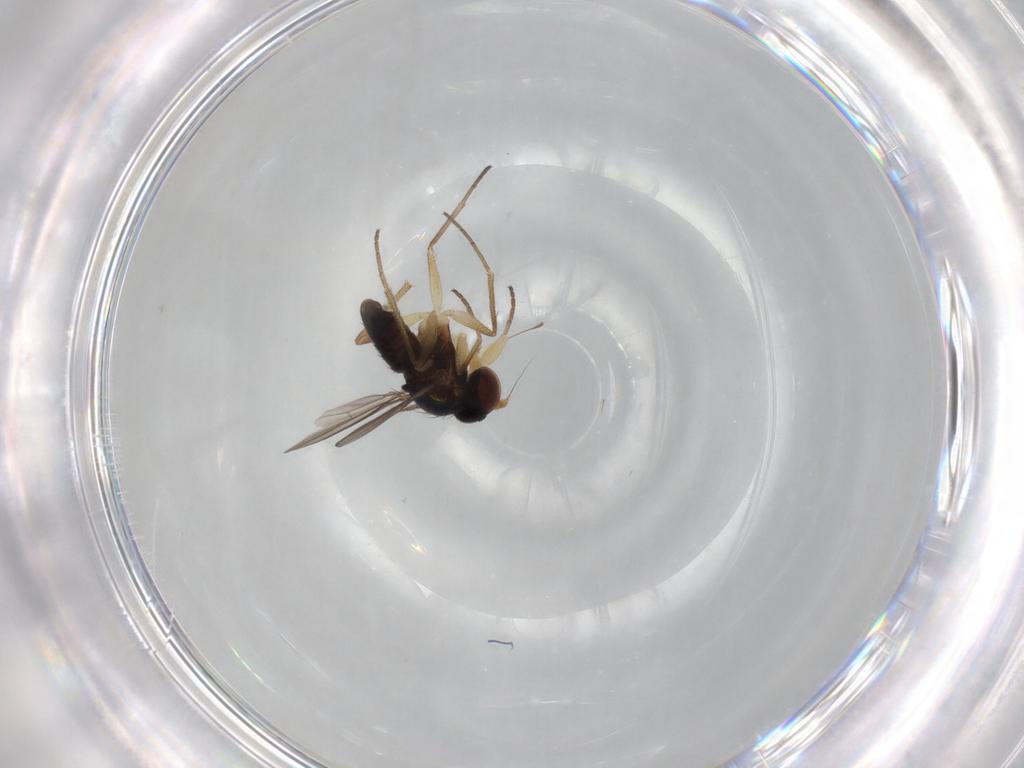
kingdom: Animalia
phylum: Arthropoda
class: Insecta
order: Diptera
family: Dolichopodidae
